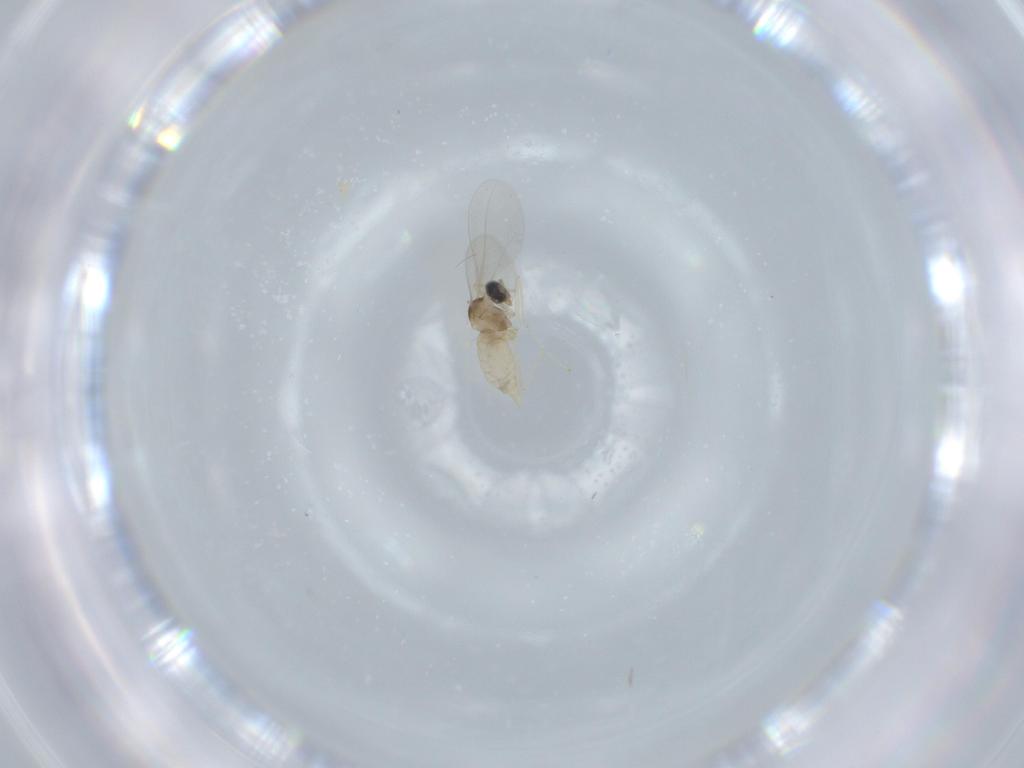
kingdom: Animalia
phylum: Arthropoda
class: Insecta
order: Diptera
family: Cecidomyiidae
